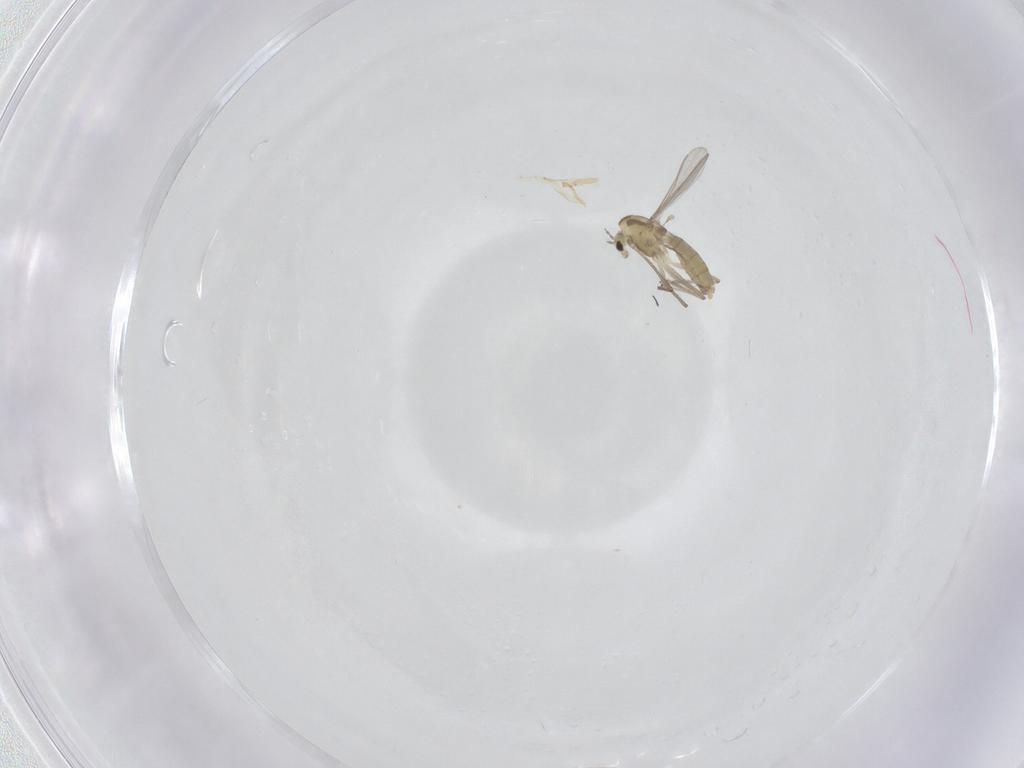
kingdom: Animalia
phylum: Arthropoda
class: Insecta
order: Diptera
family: Chironomidae
